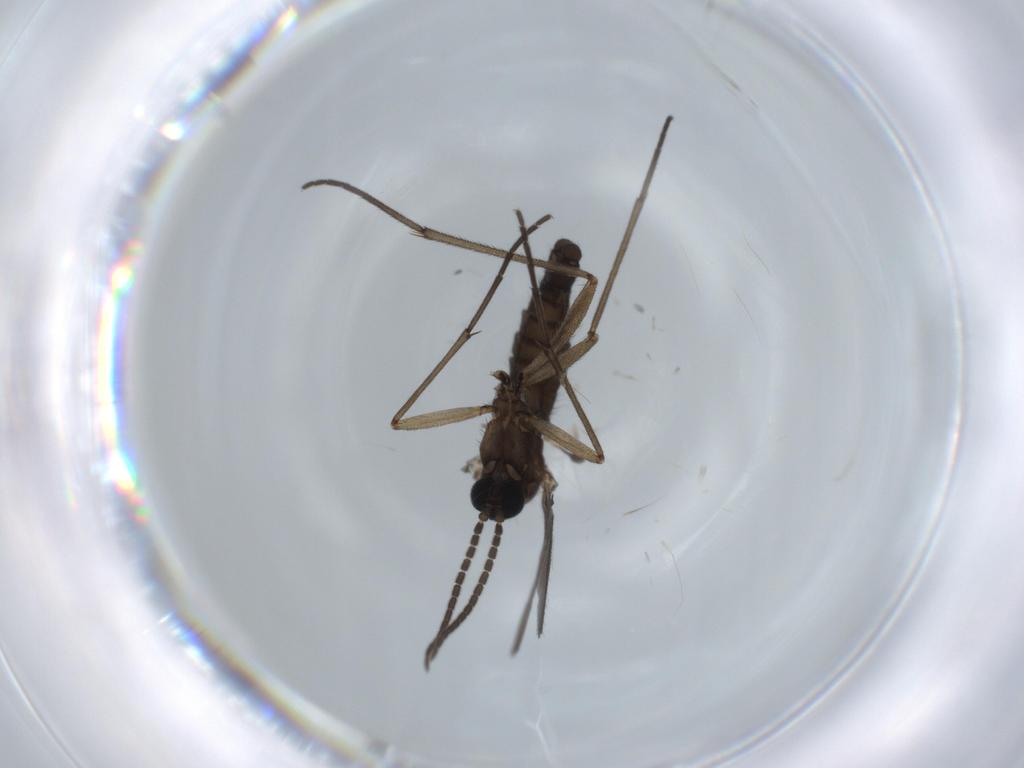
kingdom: Animalia
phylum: Arthropoda
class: Insecta
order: Diptera
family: Sciaridae
